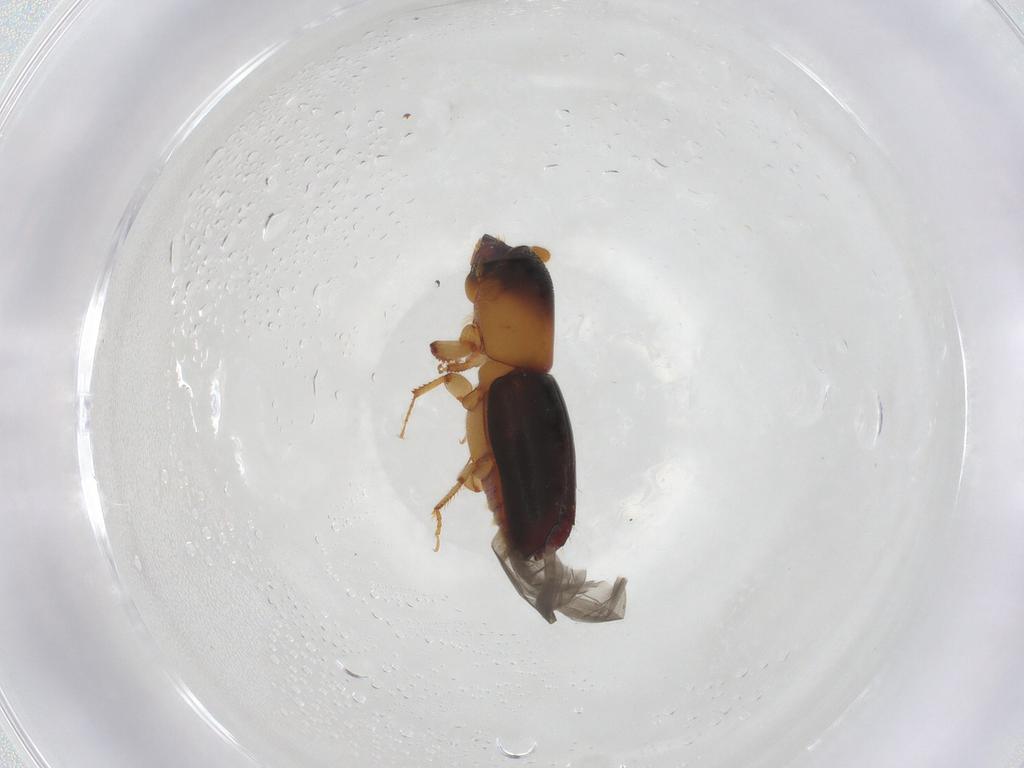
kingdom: Animalia
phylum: Arthropoda
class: Insecta
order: Coleoptera
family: Curculionidae
